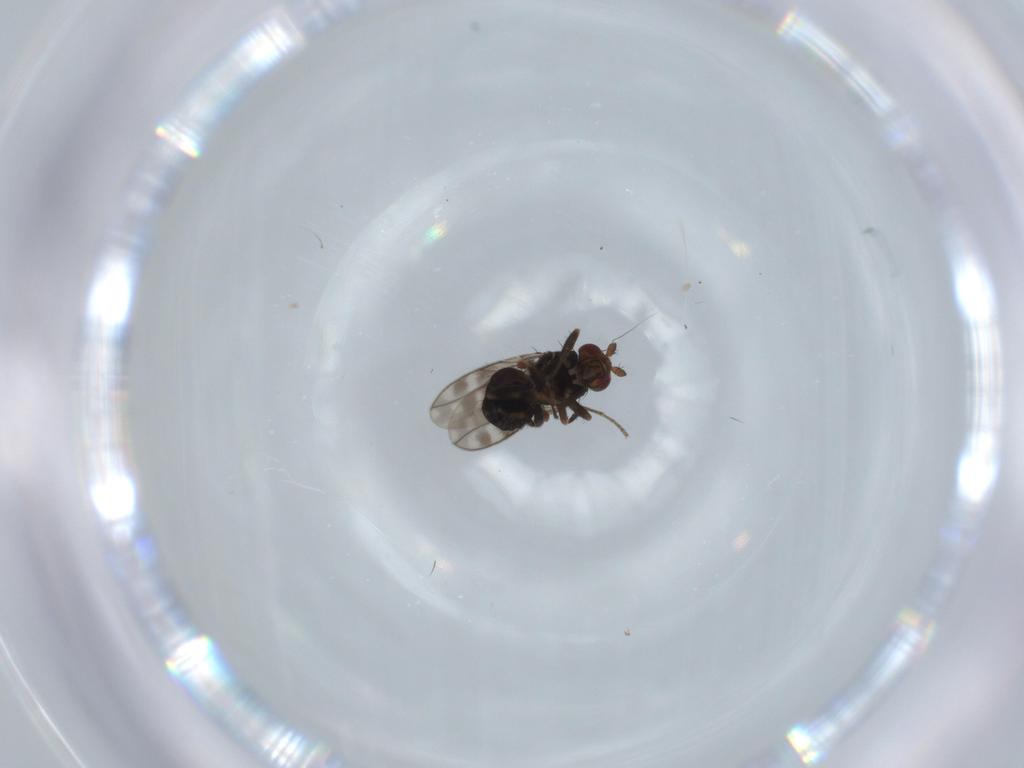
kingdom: Animalia
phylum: Arthropoda
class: Insecta
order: Diptera
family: Sphaeroceridae
